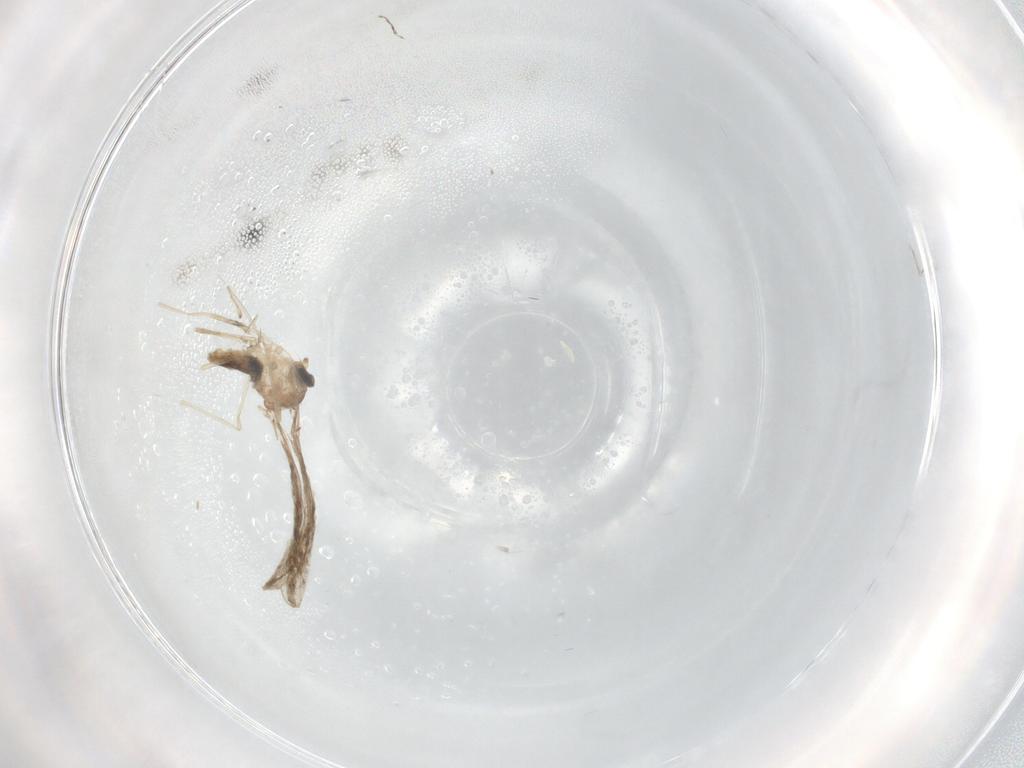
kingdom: Animalia
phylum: Arthropoda
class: Insecta
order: Diptera
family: Cecidomyiidae
